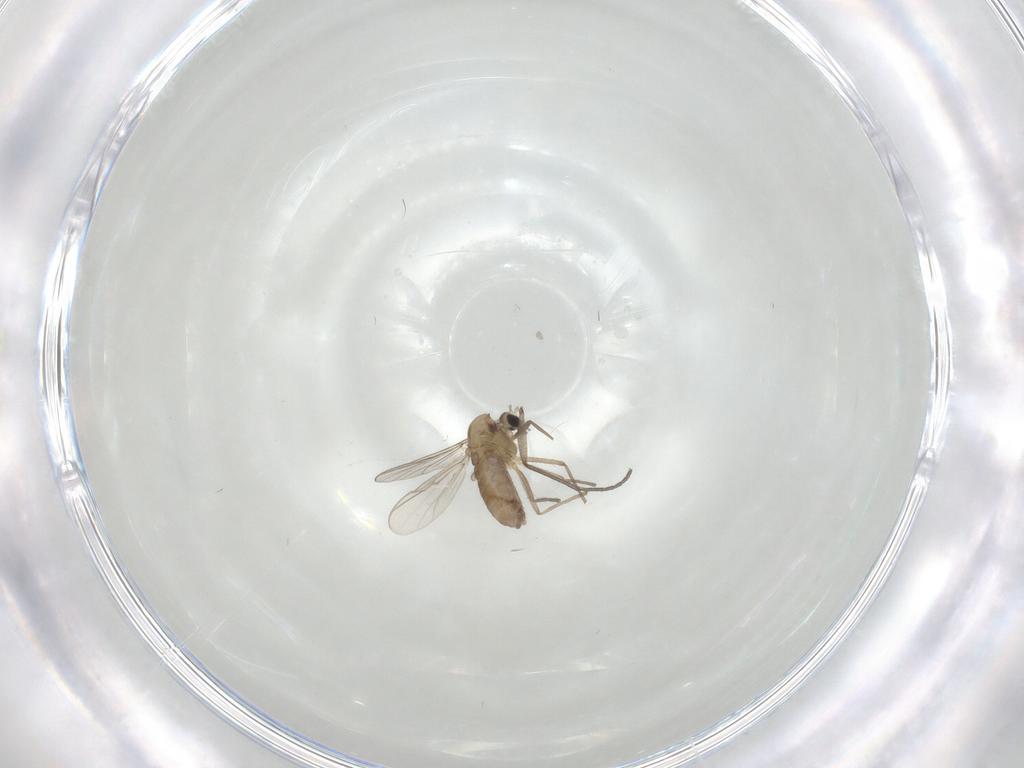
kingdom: Animalia
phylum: Arthropoda
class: Insecta
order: Diptera
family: Chironomidae
